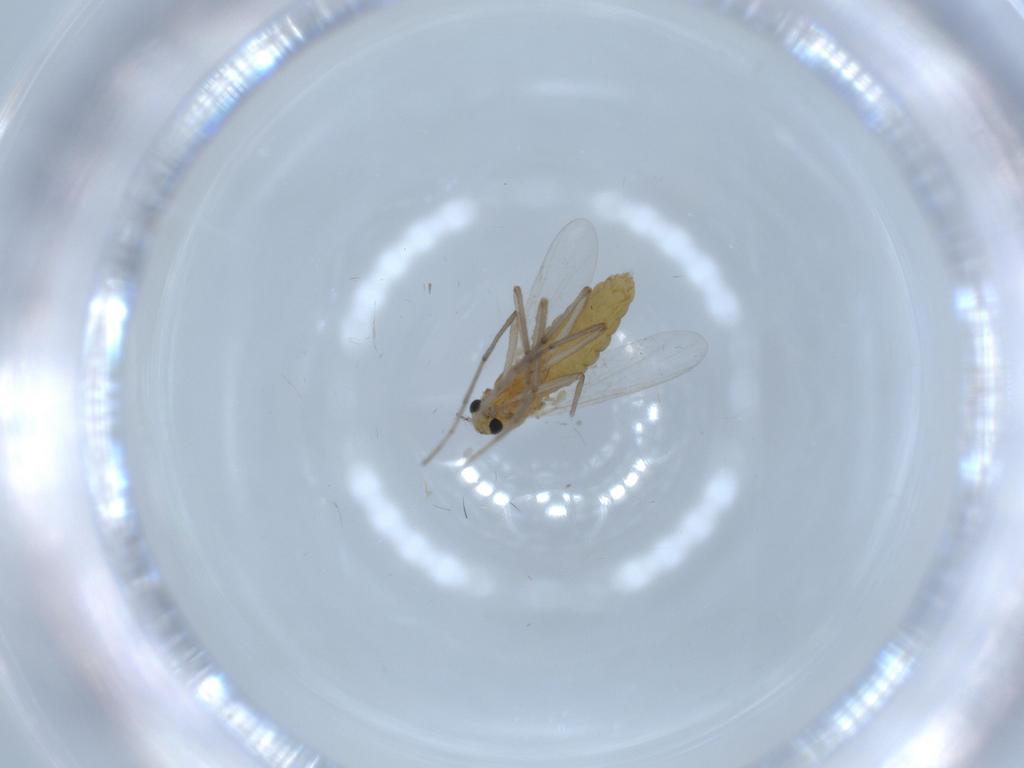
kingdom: Animalia
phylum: Arthropoda
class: Insecta
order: Diptera
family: Chironomidae
